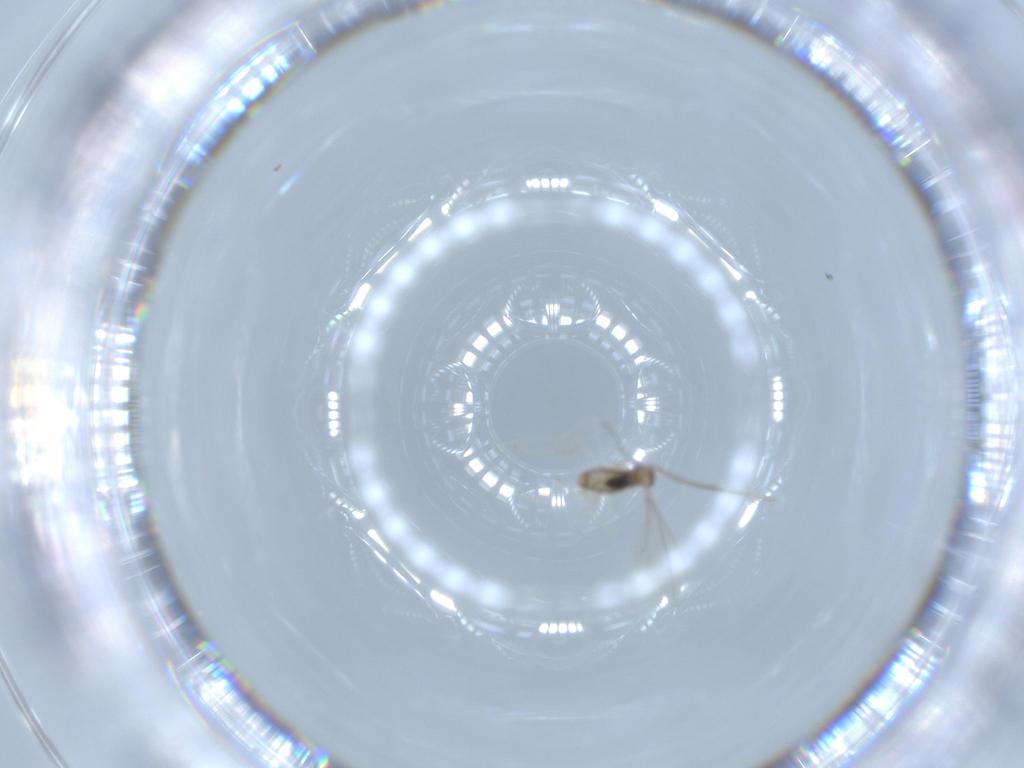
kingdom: Animalia
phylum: Arthropoda
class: Insecta
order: Diptera
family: Cecidomyiidae
